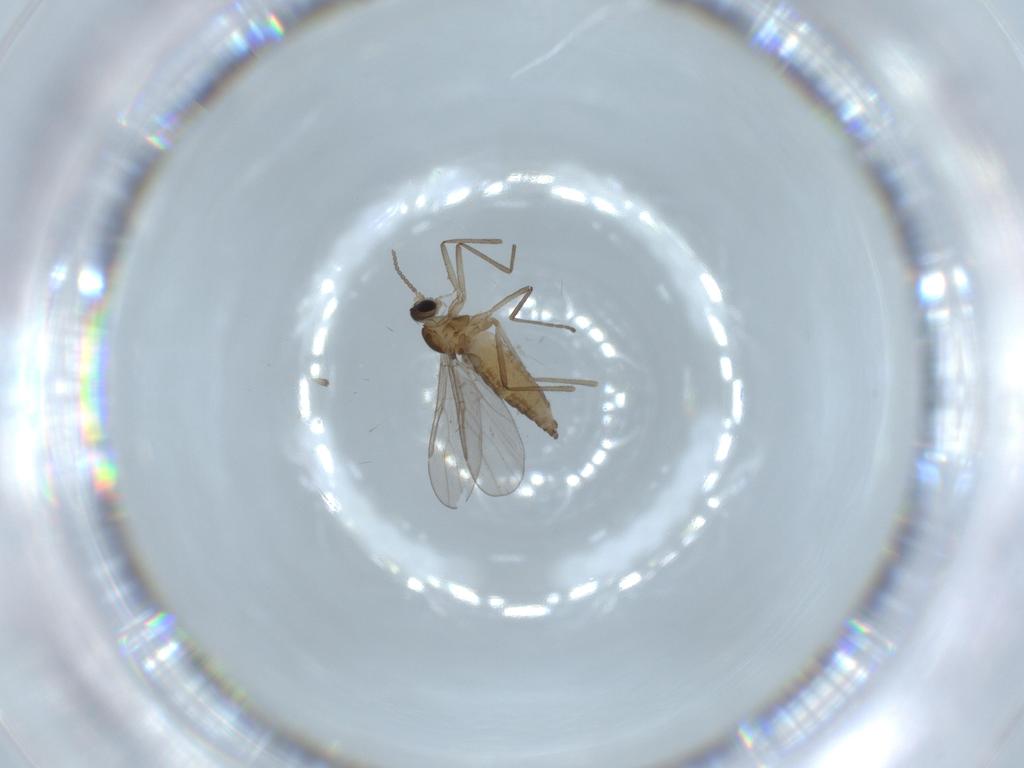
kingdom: Animalia
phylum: Arthropoda
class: Insecta
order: Diptera
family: Cecidomyiidae
